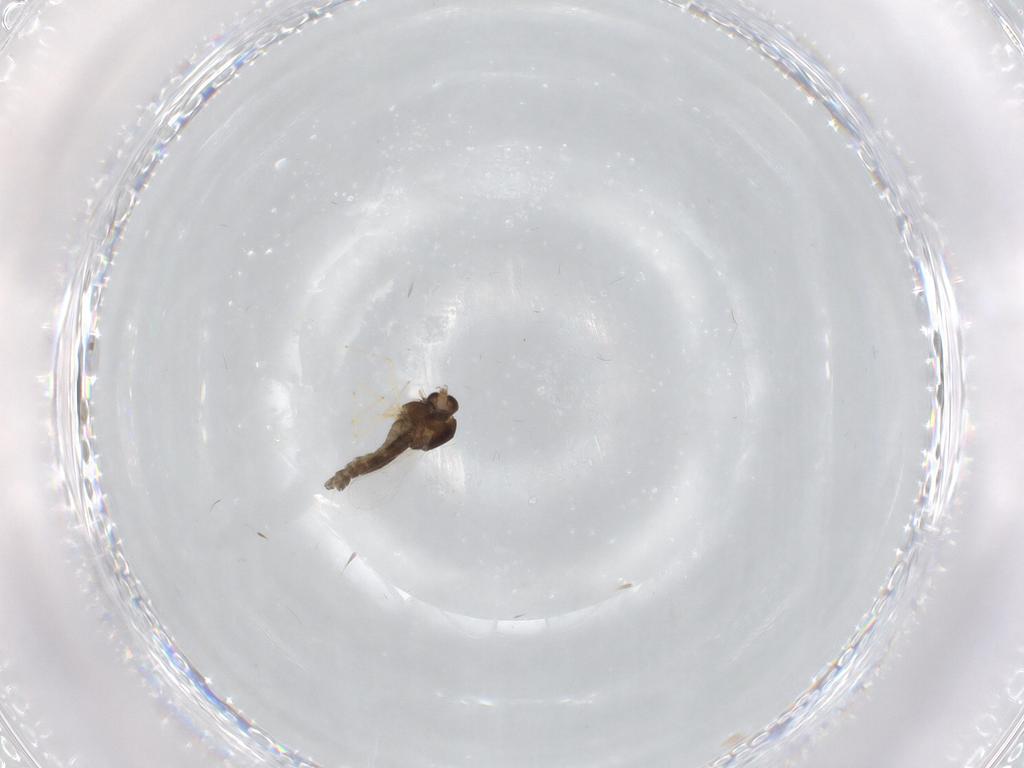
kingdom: Animalia
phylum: Arthropoda
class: Insecta
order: Diptera
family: Chironomidae
